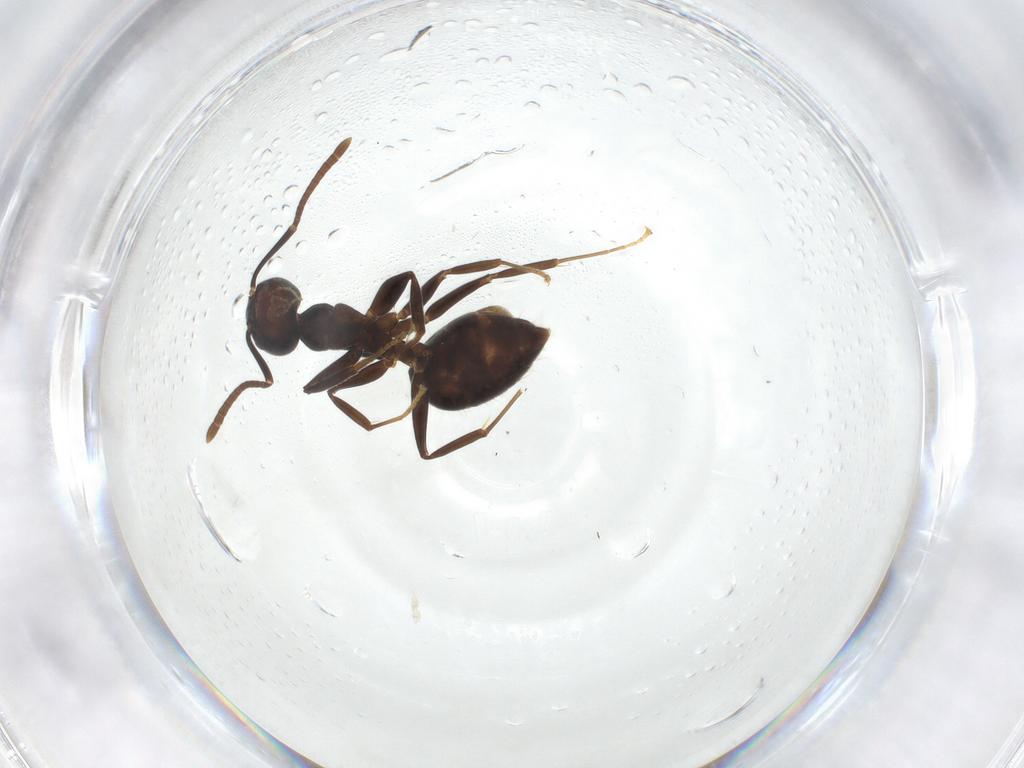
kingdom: Animalia
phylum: Arthropoda
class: Insecta
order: Hymenoptera
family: Formicidae
